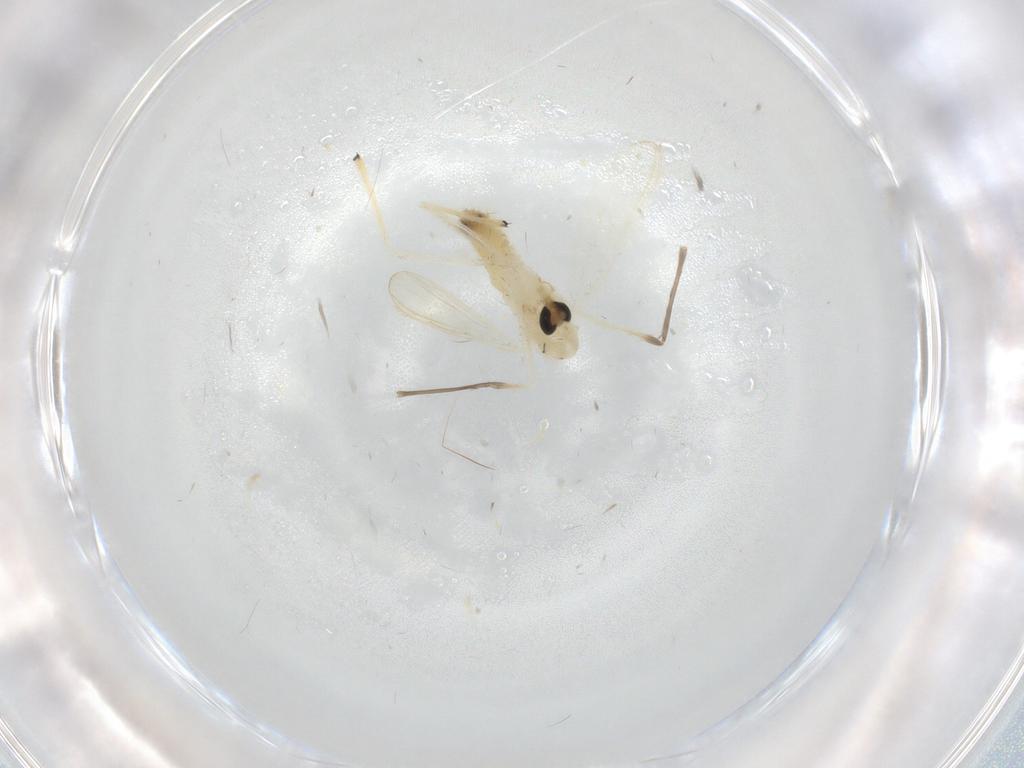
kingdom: Animalia
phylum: Arthropoda
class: Insecta
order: Diptera
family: Chironomidae
